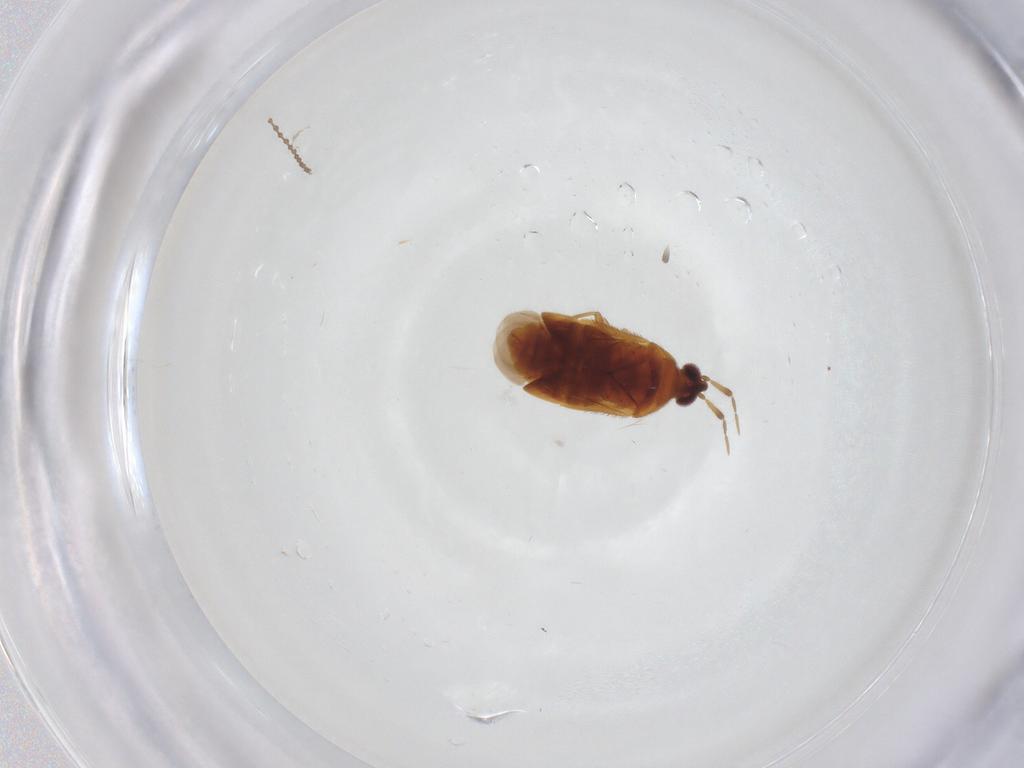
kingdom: Animalia
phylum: Arthropoda
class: Insecta
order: Hemiptera
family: Anthocoridae
